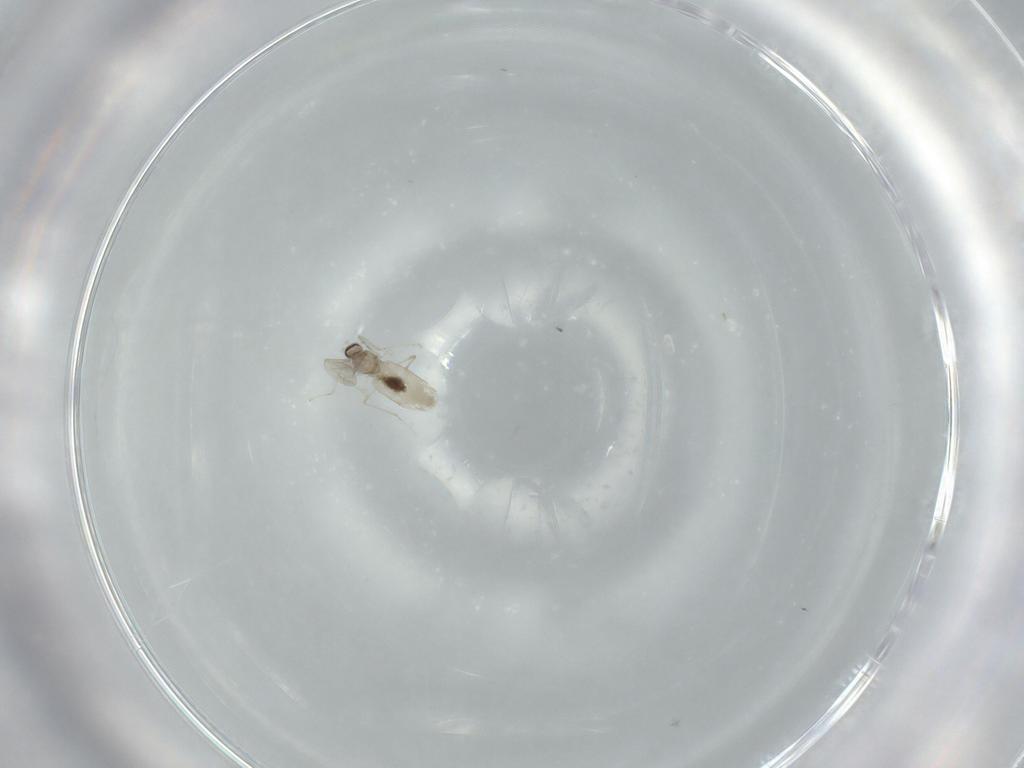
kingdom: Animalia
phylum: Arthropoda
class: Insecta
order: Diptera
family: Cecidomyiidae
